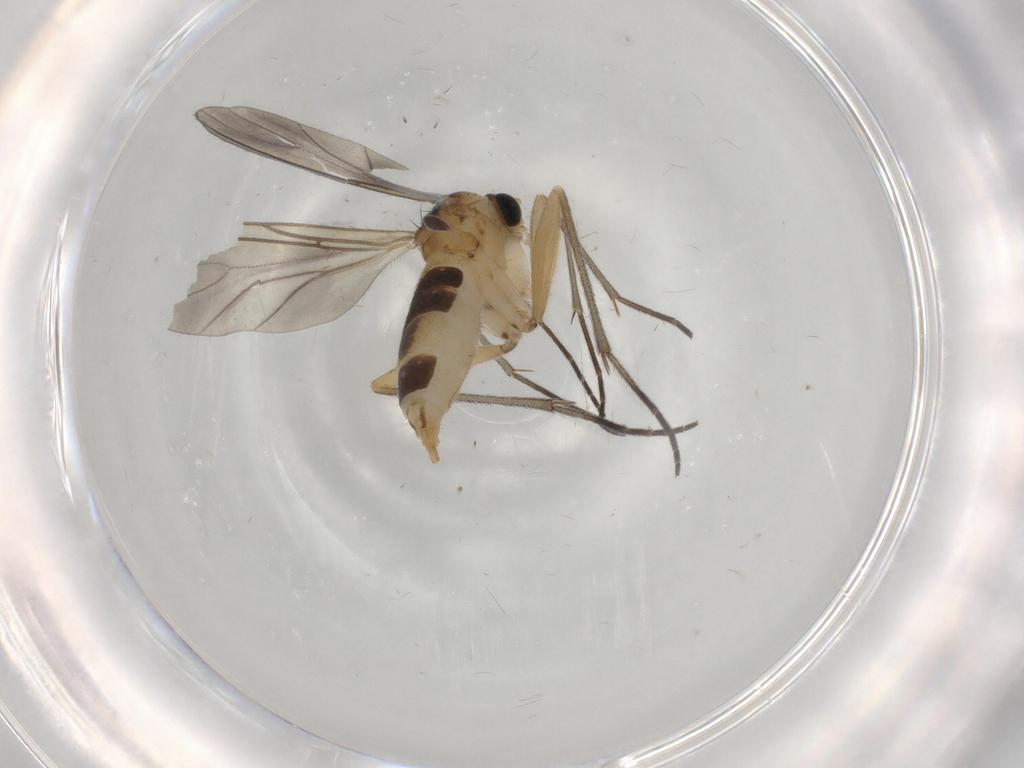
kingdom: Animalia
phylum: Arthropoda
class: Insecta
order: Diptera
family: Sciaridae
